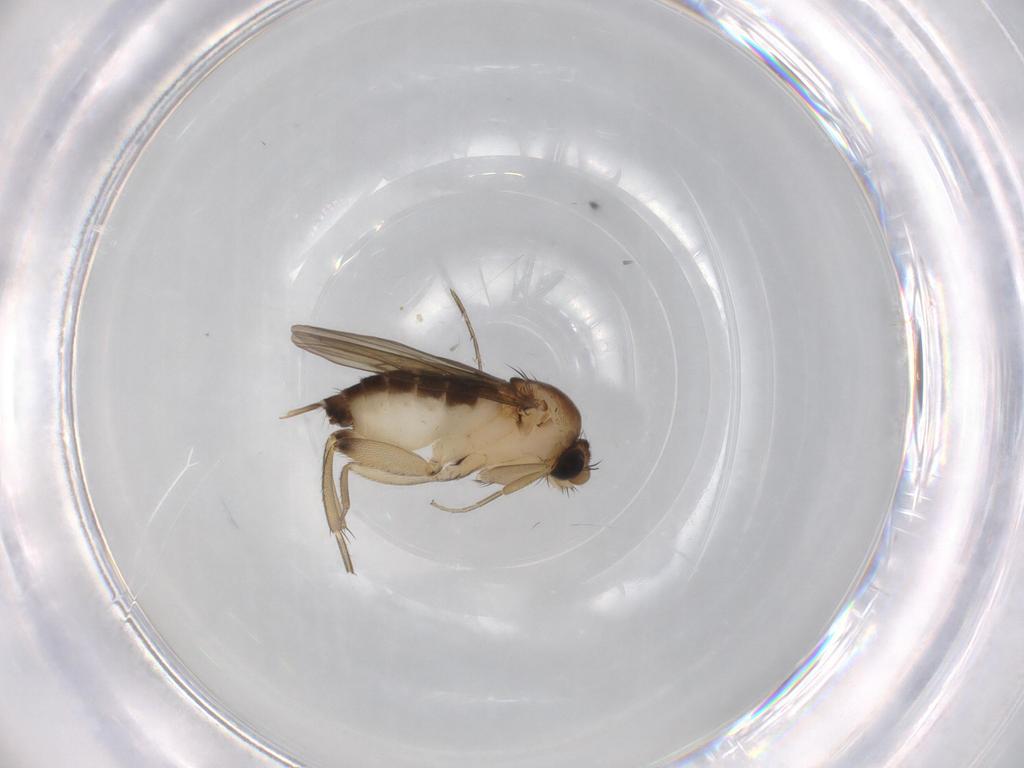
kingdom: Animalia
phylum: Arthropoda
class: Insecta
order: Diptera
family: Phoridae
